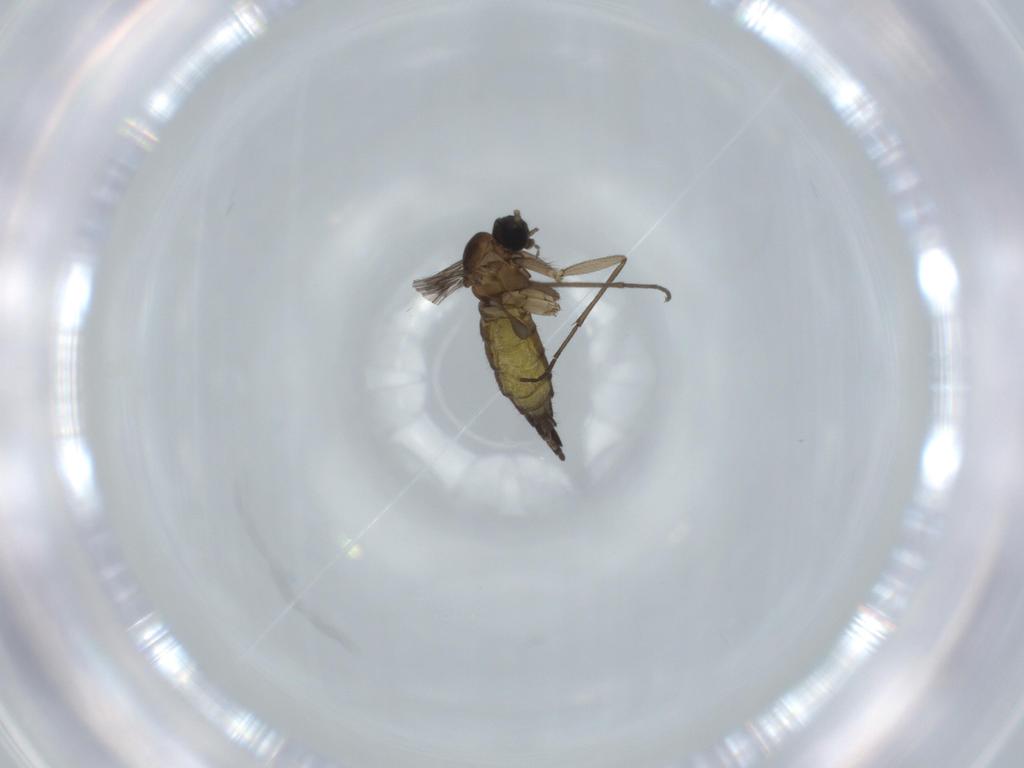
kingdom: Animalia
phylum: Arthropoda
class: Insecta
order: Diptera
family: Sciaridae
